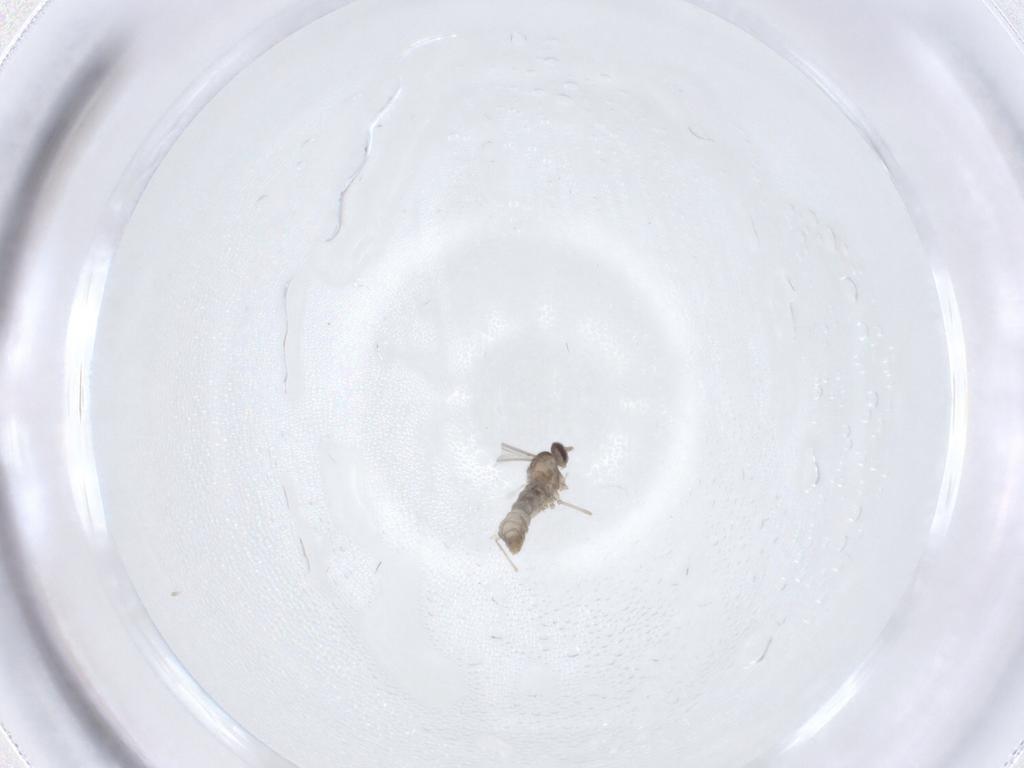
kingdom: Animalia
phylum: Arthropoda
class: Insecta
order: Diptera
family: Cecidomyiidae
